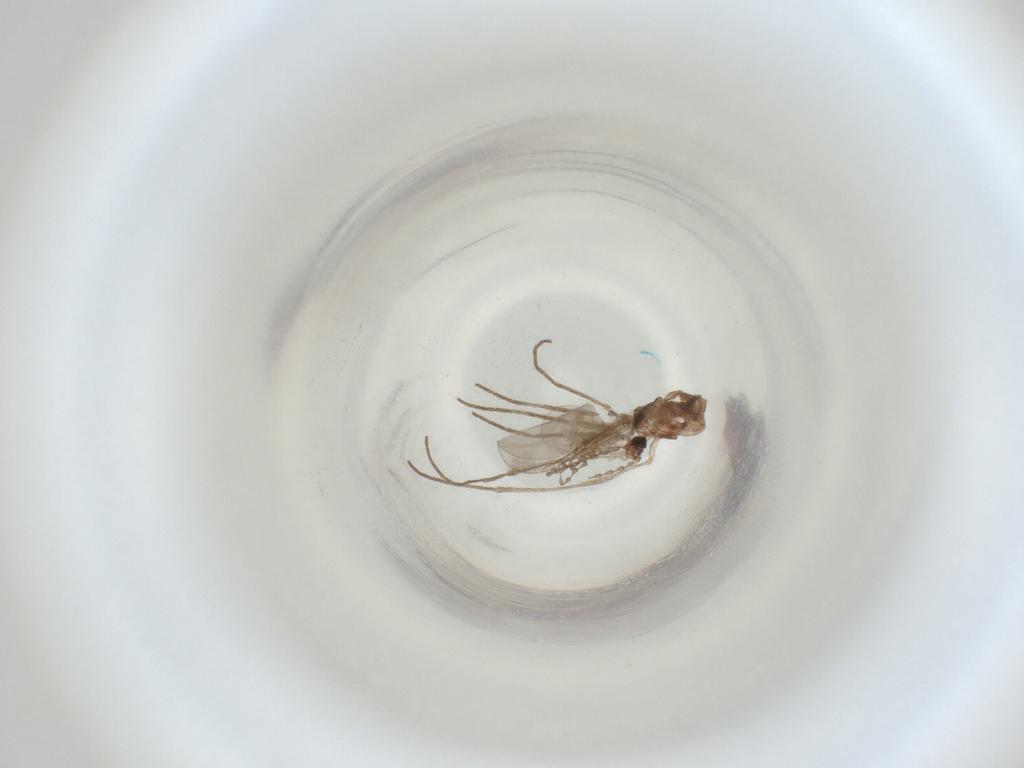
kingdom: Animalia
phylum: Arthropoda
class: Insecta
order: Diptera
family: Cecidomyiidae
